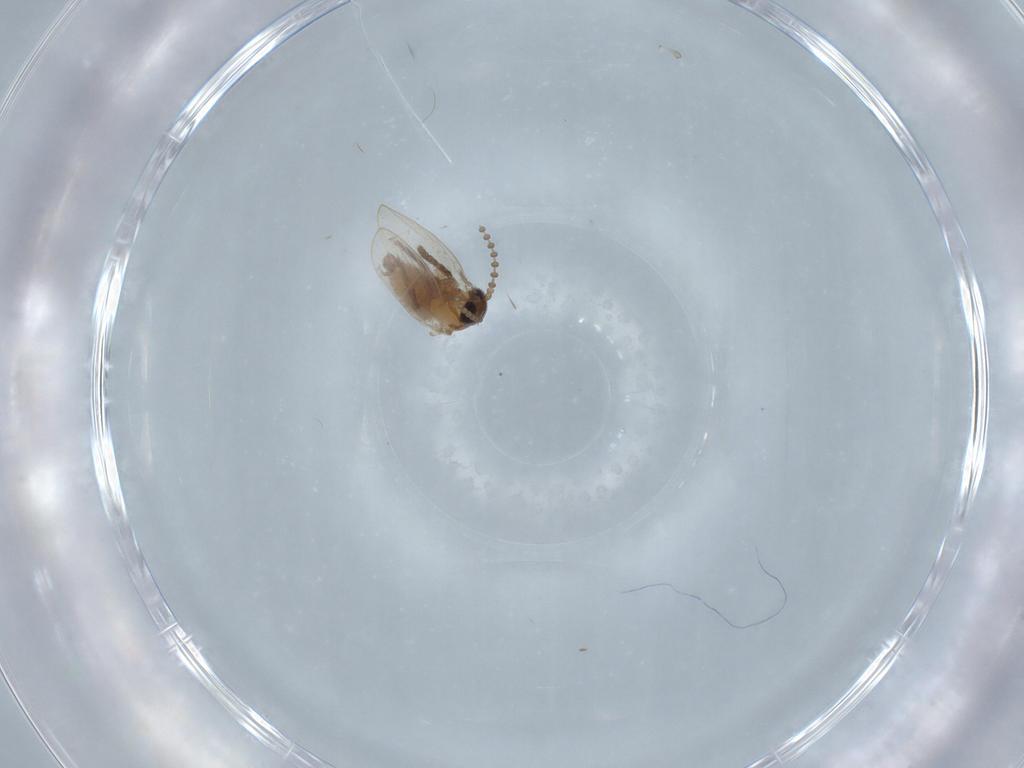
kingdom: Animalia
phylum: Arthropoda
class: Insecta
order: Diptera
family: Ceratopogonidae
